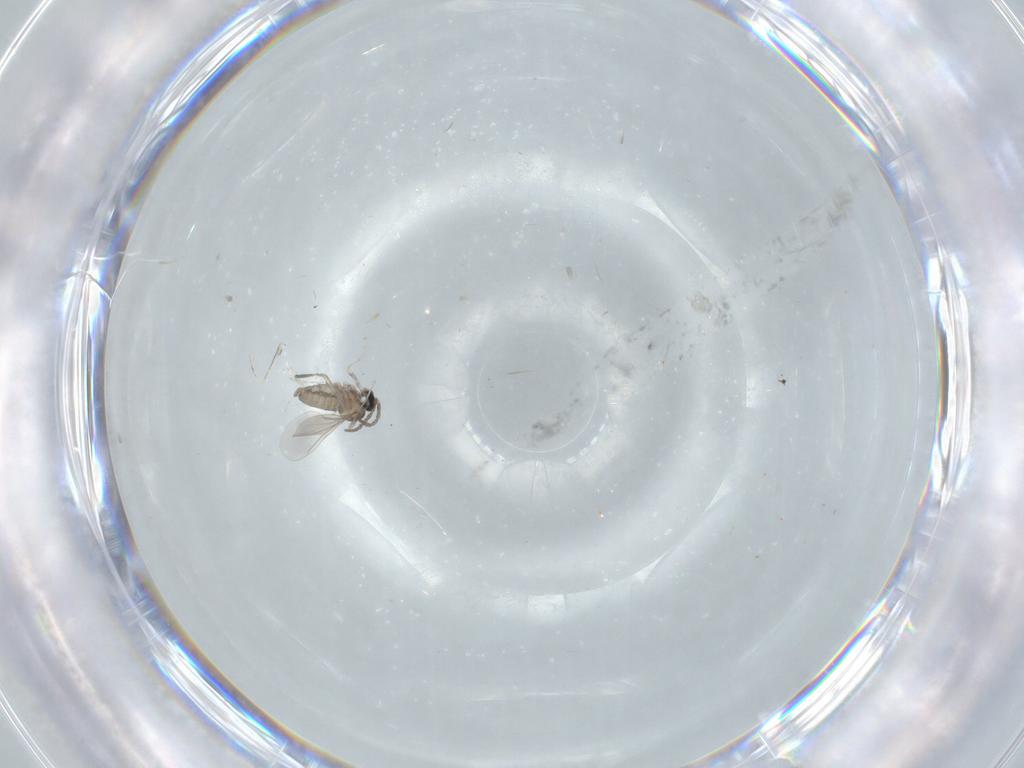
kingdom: Animalia
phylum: Arthropoda
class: Insecta
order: Diptera
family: Cecidomyiidae
